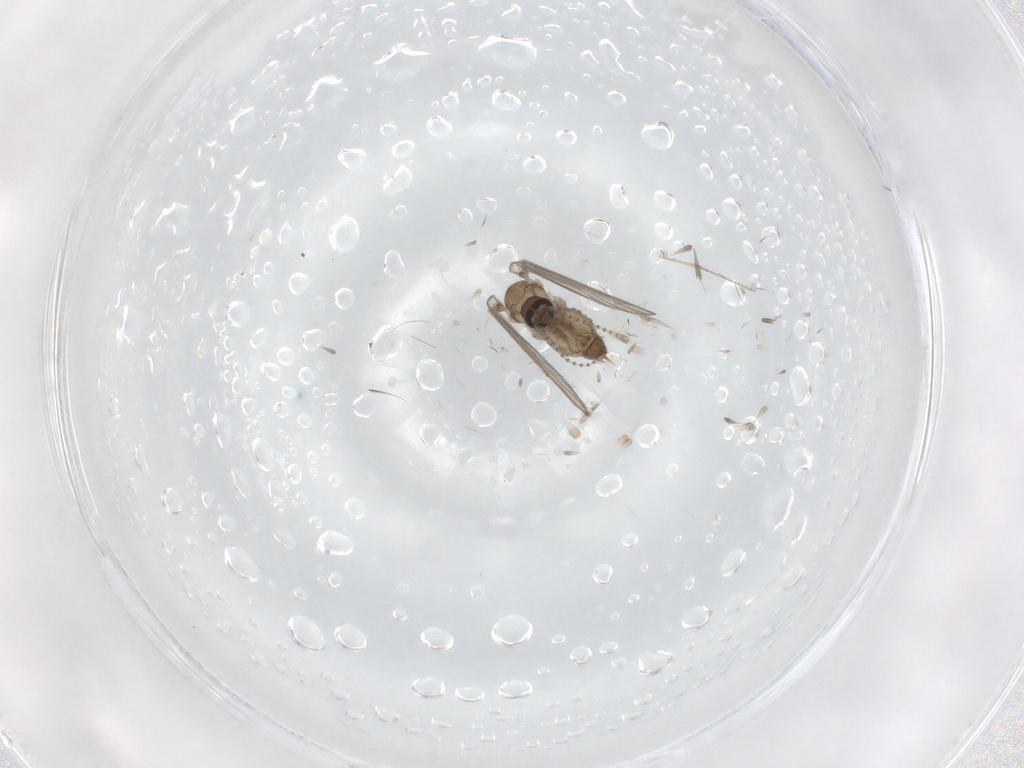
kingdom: Animalia
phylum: Arthropoda
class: Insecta
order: Diptera
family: Psychodidae
